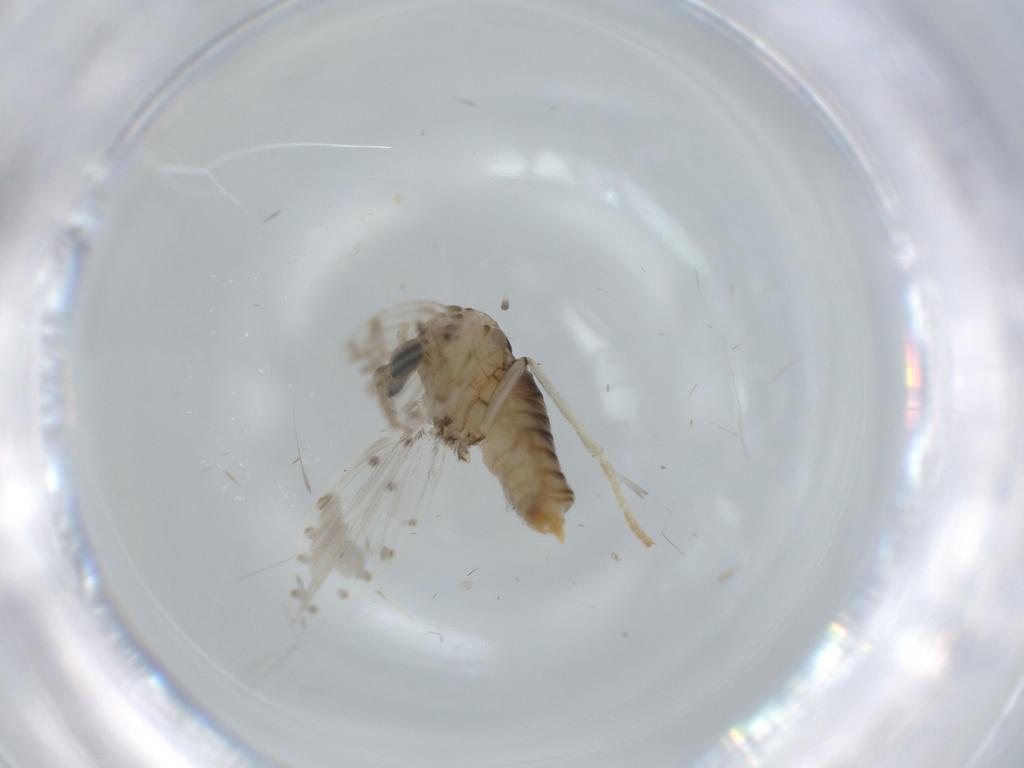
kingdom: Animalia
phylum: Arthropoda
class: Insecta
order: Diptera
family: Psychodidae
